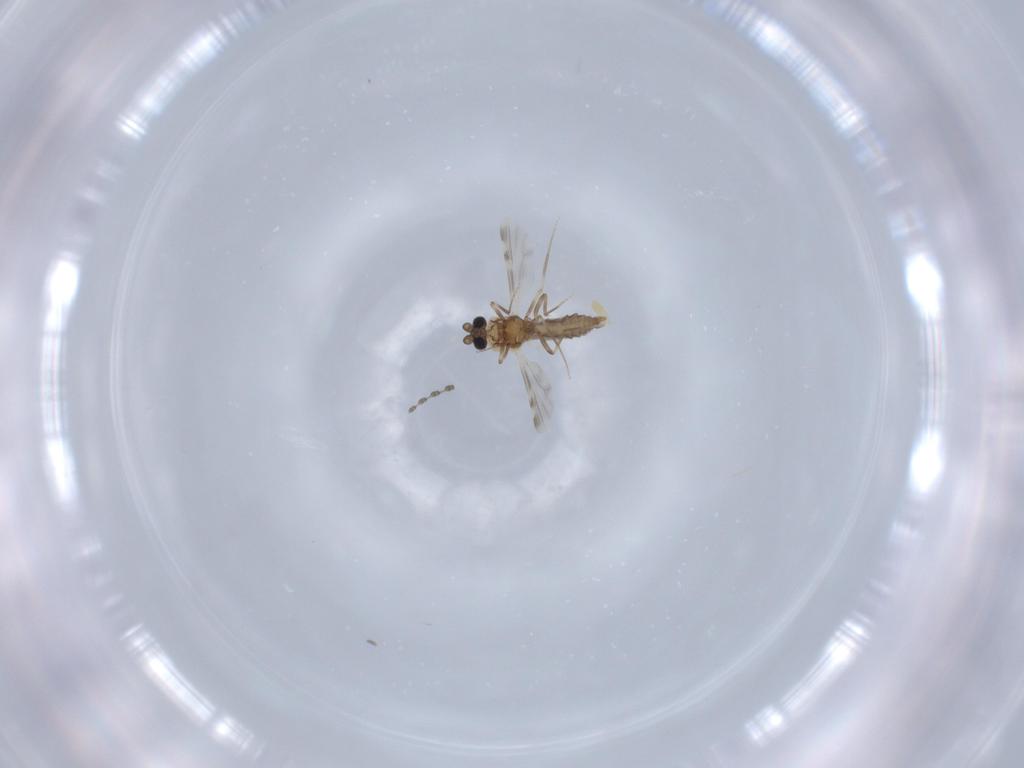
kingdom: Animalia
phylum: Arthropoda
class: Insecta
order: Diptera
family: Ceratopogonidae
